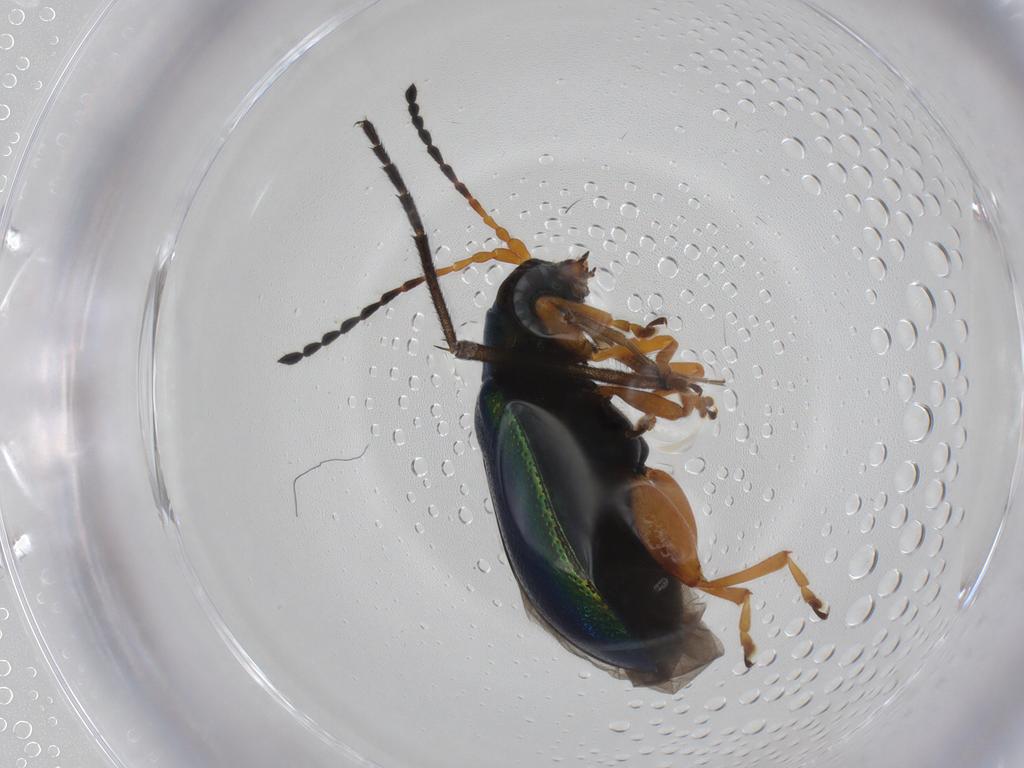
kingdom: Animalia
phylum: Arthropoda
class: Insecta
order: Coleoptera
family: Chrysomelidae
